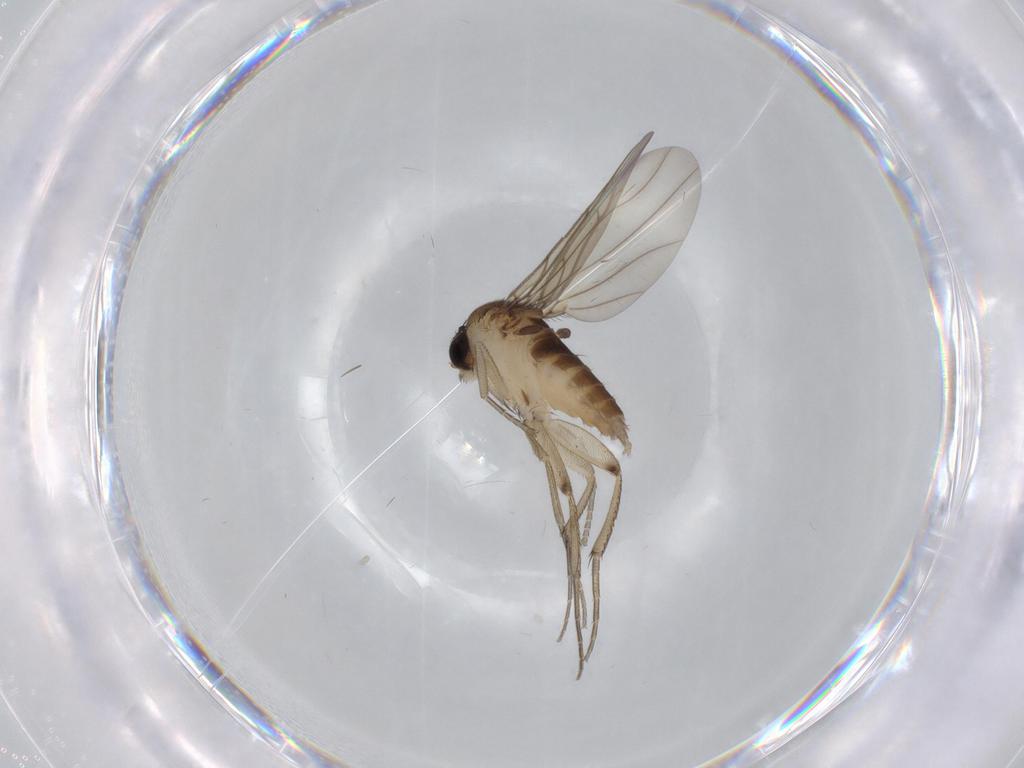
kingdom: Animalia
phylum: Arthropoda
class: Insecta
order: Diptera
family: Phoridae
